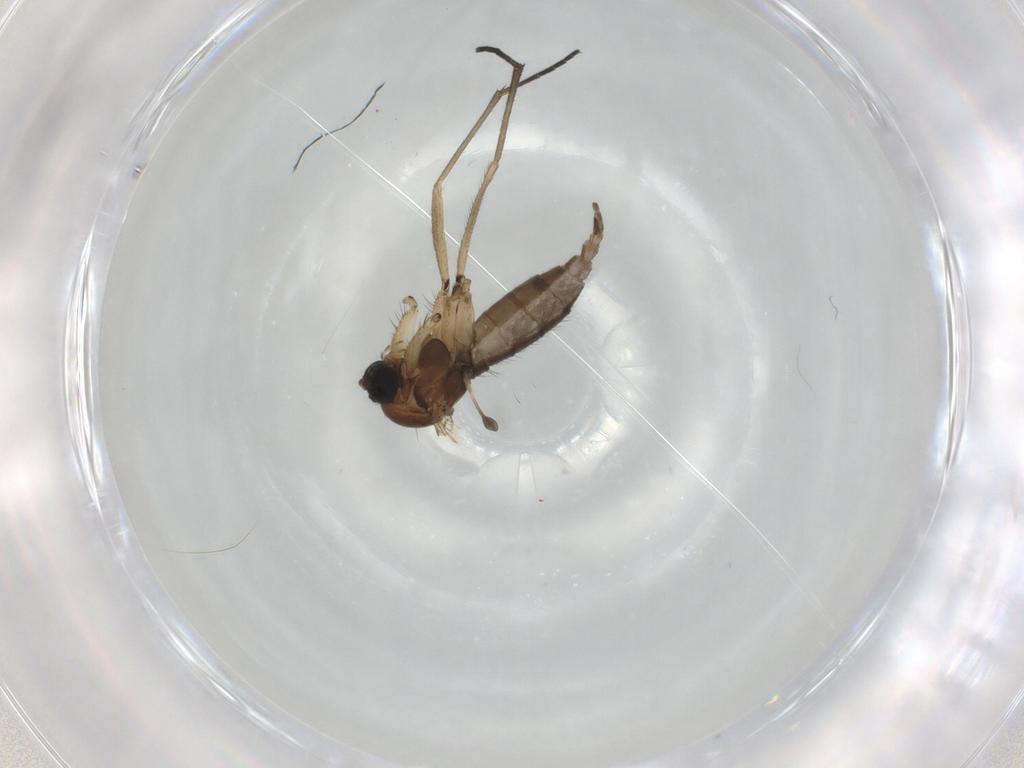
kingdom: Animalia
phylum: Arthropoda
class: Insecta
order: Diptera
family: Sciaridae
